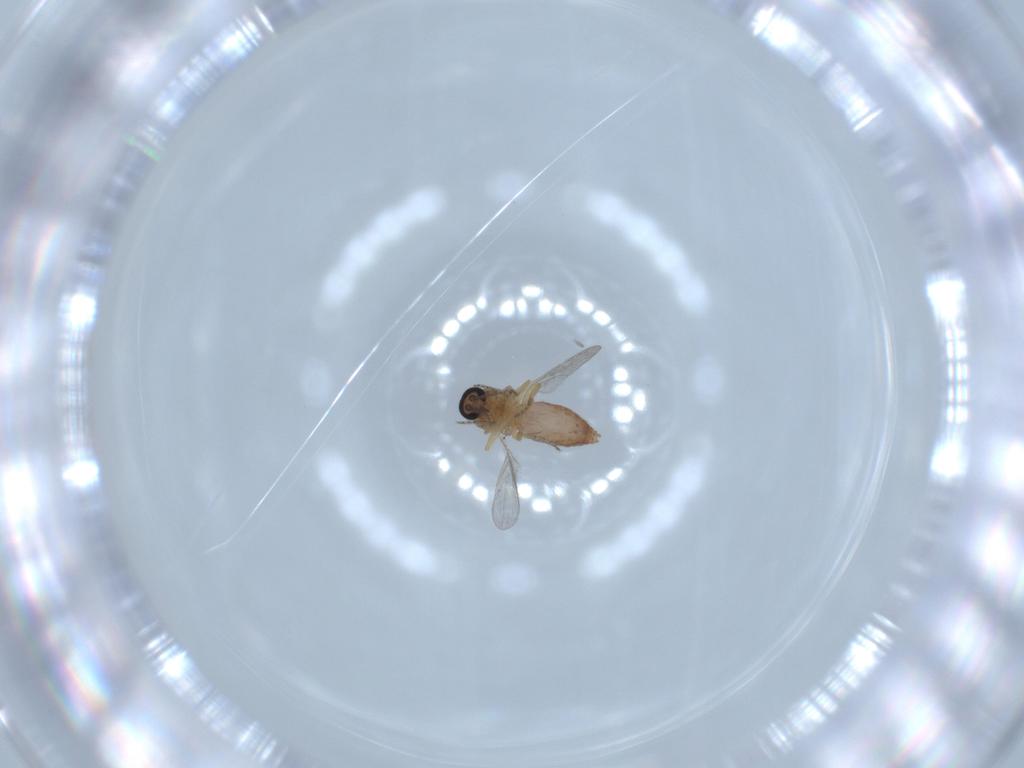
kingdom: Animalia
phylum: Arthropoda
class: Insecta
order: Diptera
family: Ceratopogonidae
